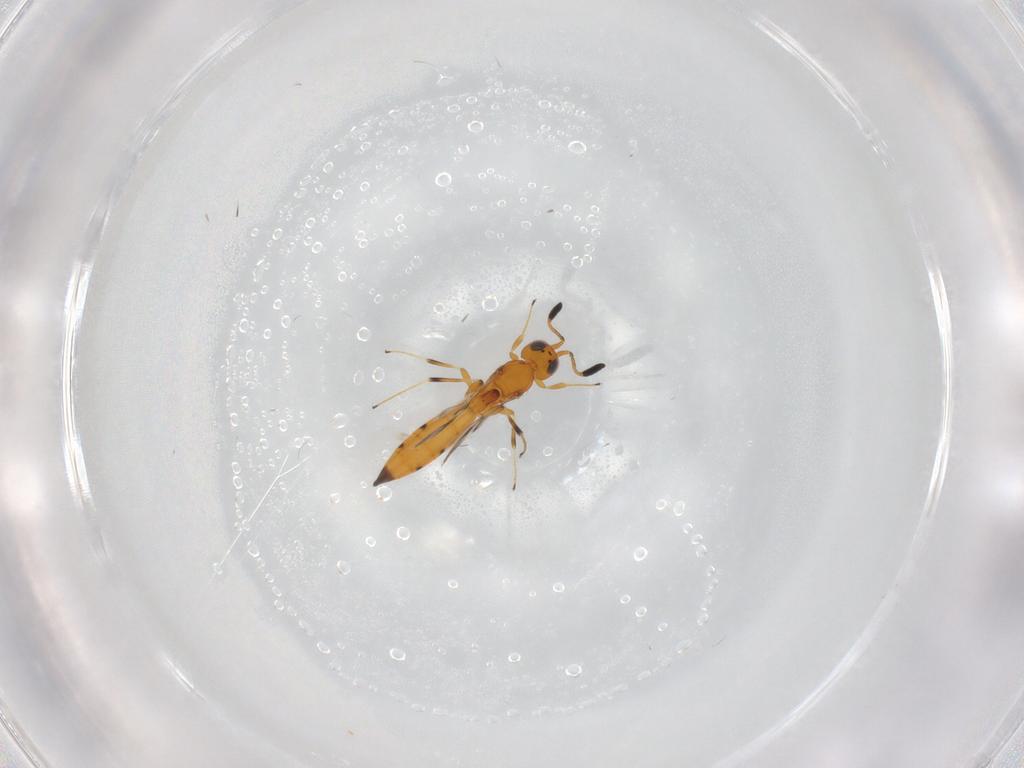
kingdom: Animalia
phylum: Arthropoda
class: Insecta
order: Hymenoptera
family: Scelionidae
